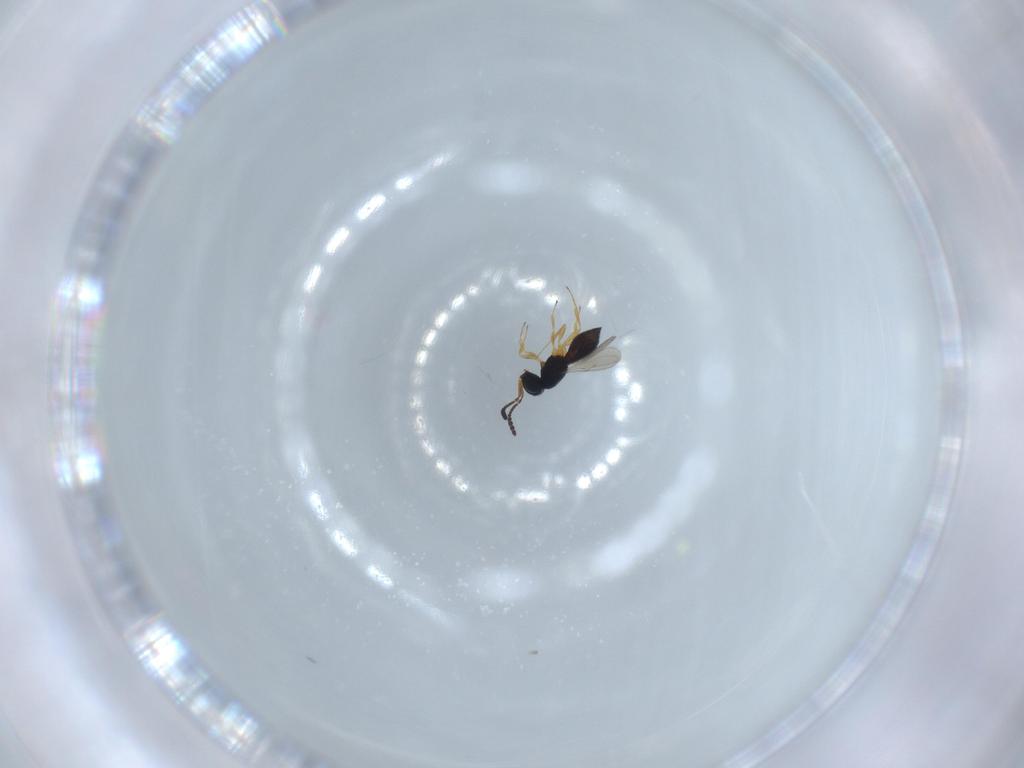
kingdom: Animalia
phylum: Arthropoda
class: Insecta
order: Hymenoptera
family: Scelionidae
